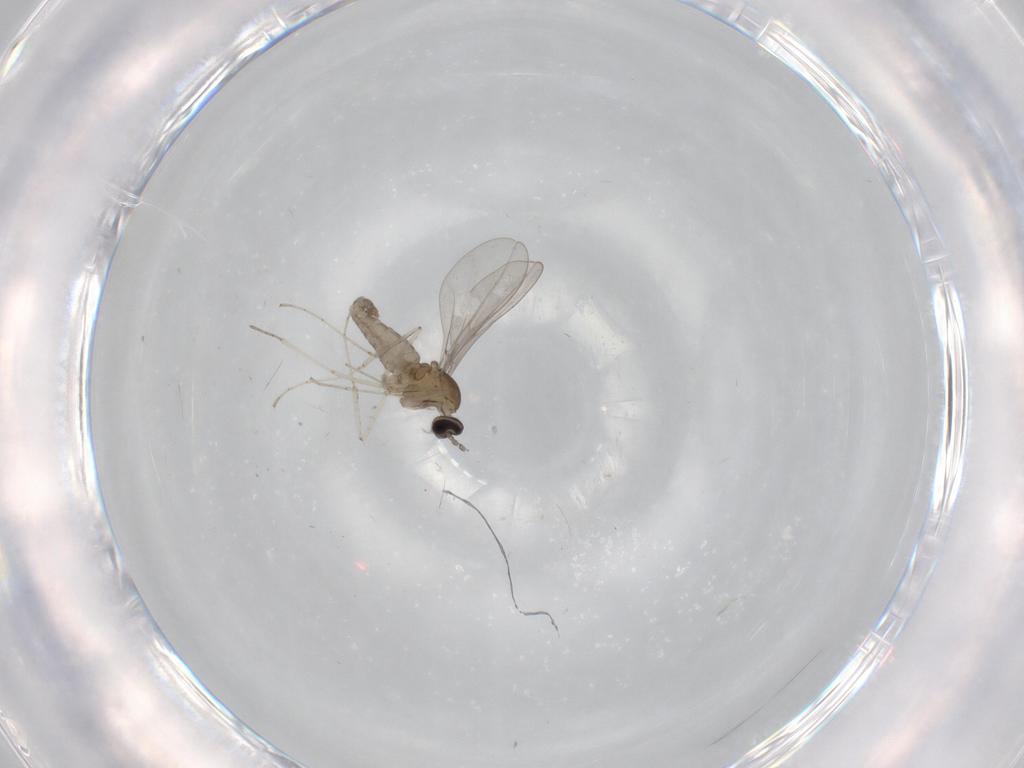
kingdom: Animalia
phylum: Arthropoda
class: Insecta
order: Diptera
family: Cecidomyiidae
